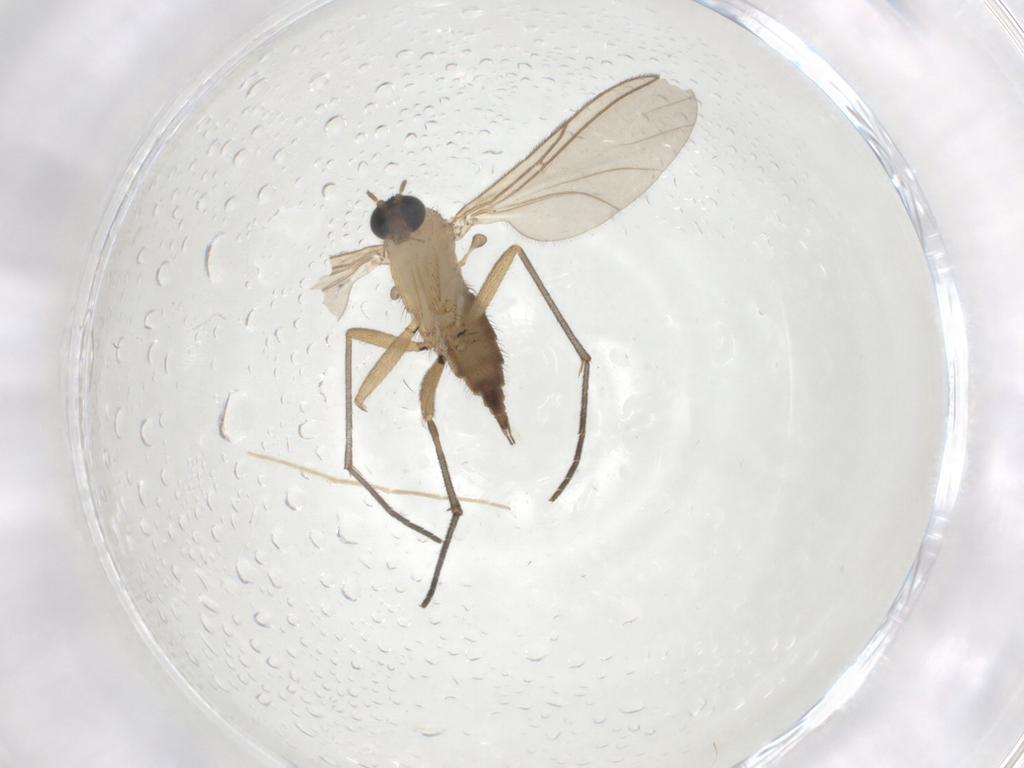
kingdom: Animalia
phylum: Arthropoda
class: Insecta
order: Diptera
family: Sciaridae
